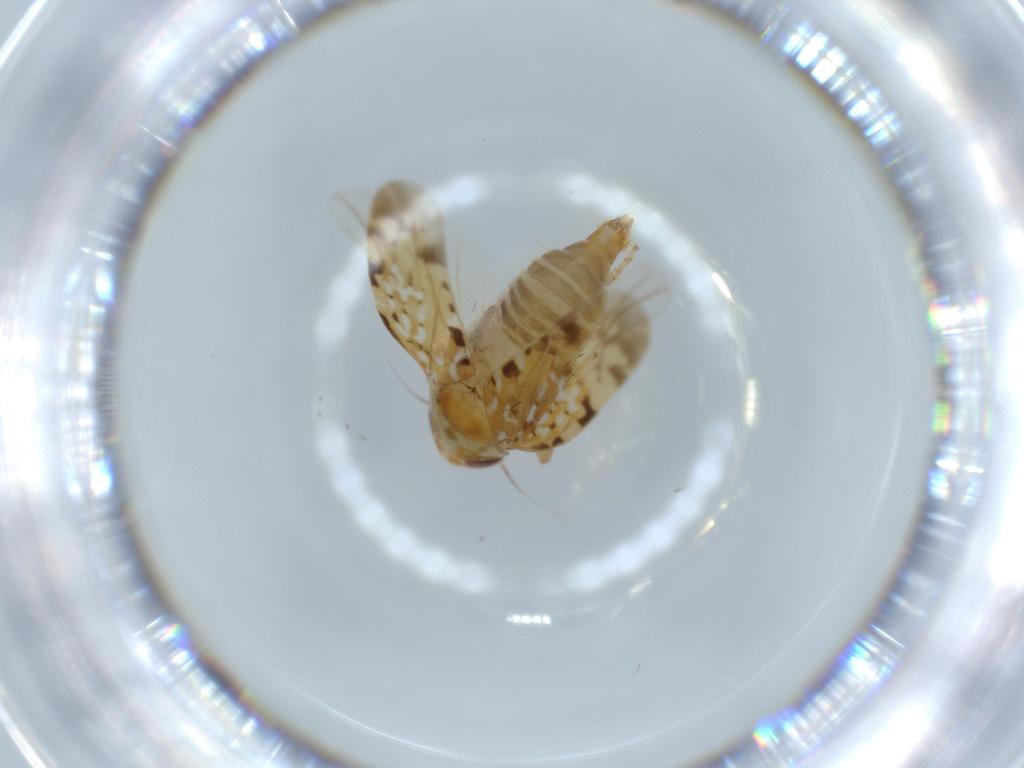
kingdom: Animalia
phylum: Arthropoda
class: Insecta
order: Hemiptera
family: Cicadellidae
